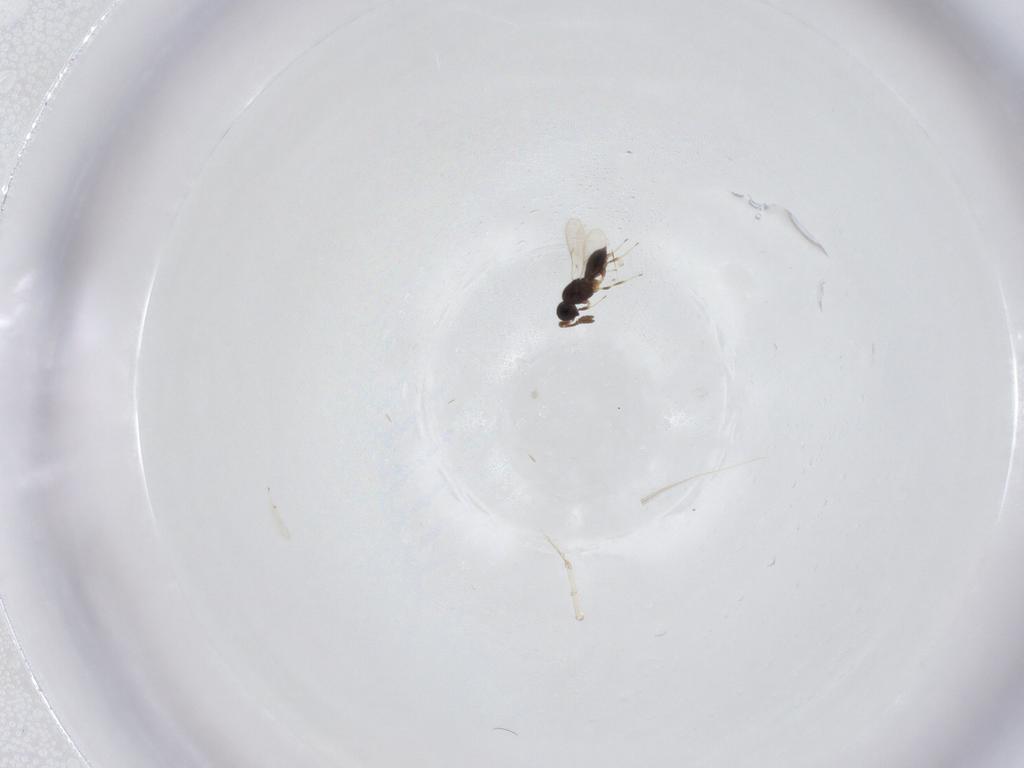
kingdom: Animalia
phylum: Arthropoda
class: Insecta
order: Hymenoptera
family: Scelionidae
